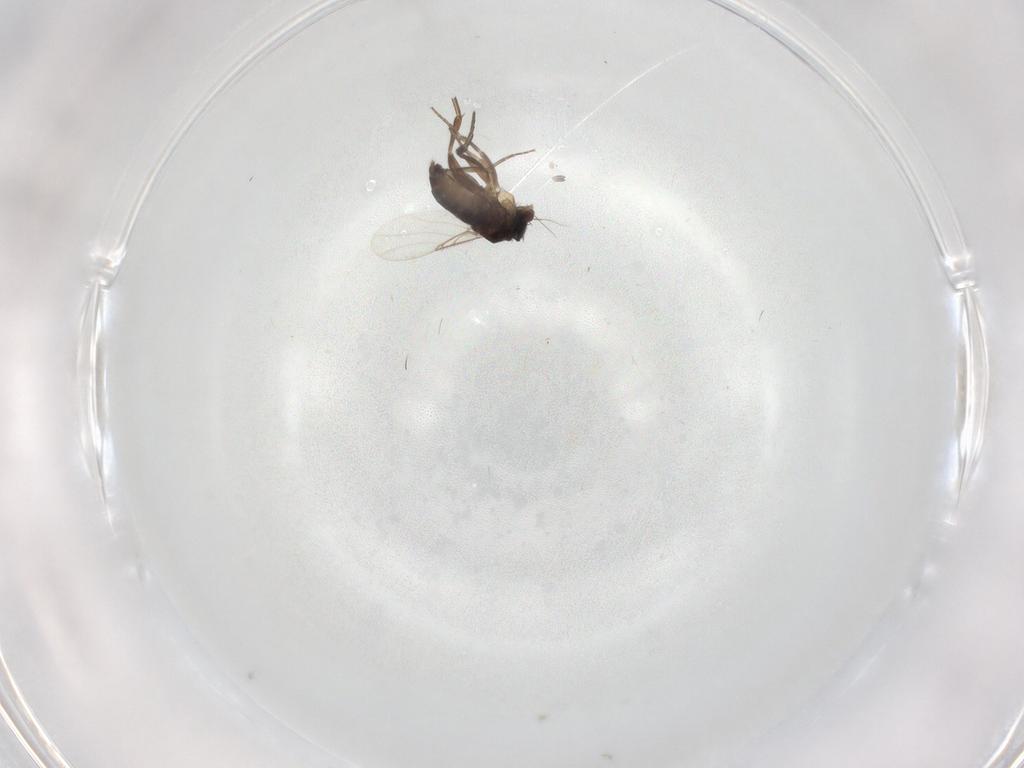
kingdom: Animalia
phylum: Arthropoda
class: Insecta
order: Diptera
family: Phoridae
